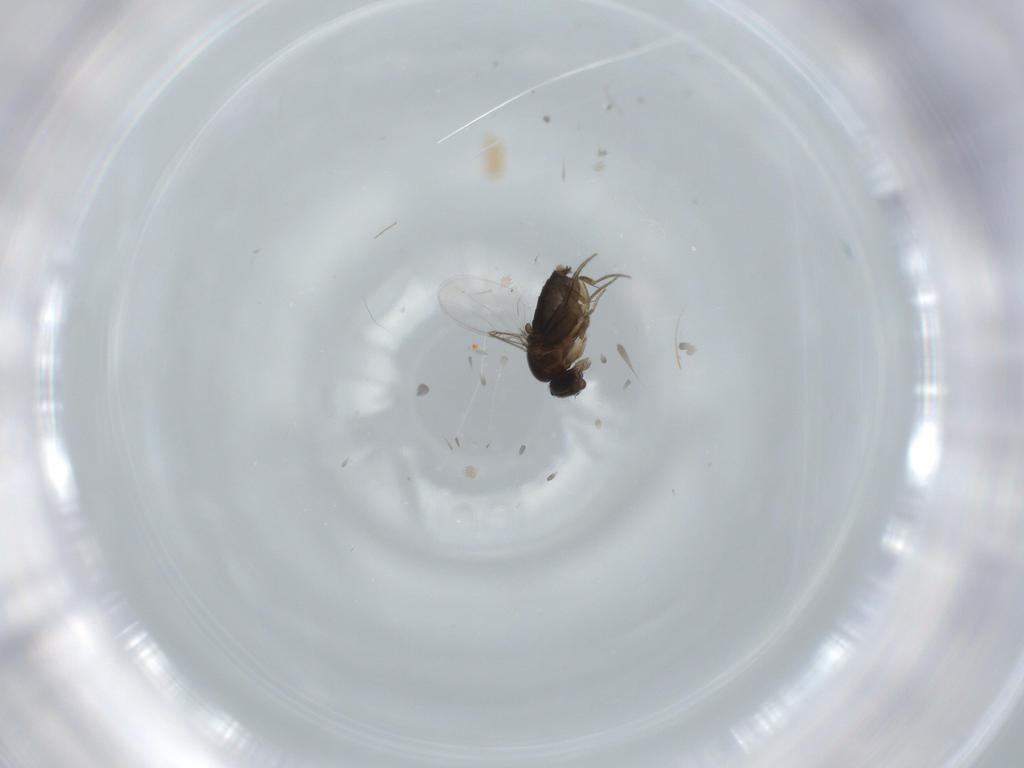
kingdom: Animalia
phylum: Arthropoda
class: Insecta
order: Diptera
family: Phoridae
